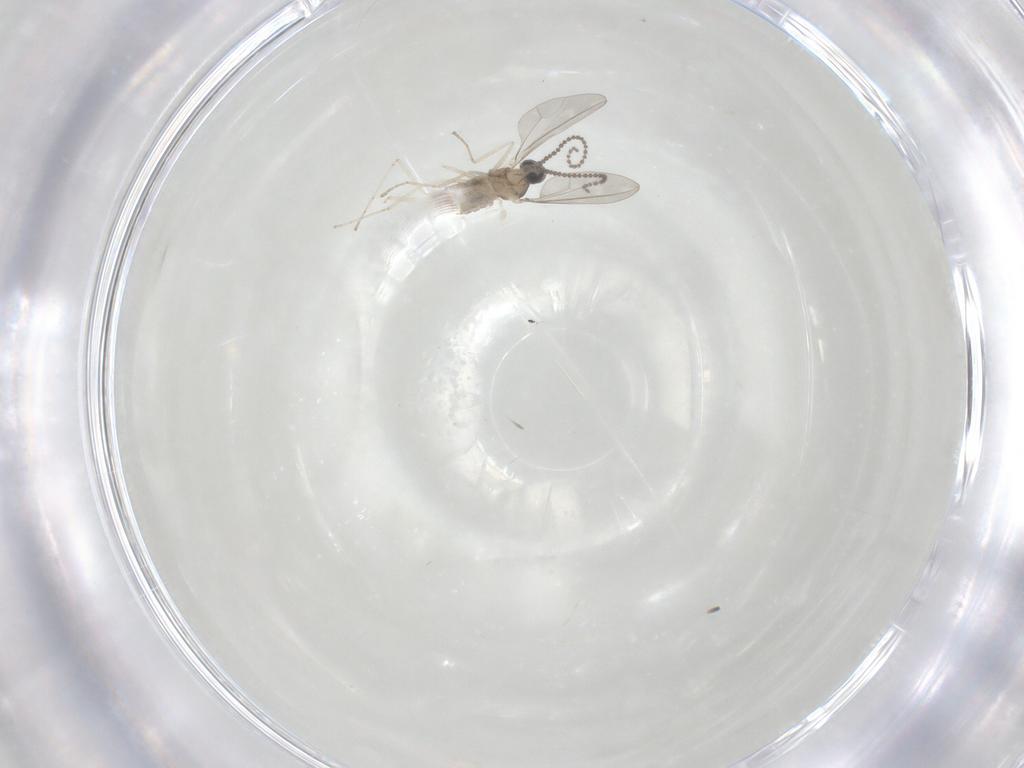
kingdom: Animalia
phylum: Arthropoda
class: Insecta
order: Diptera
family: Cecidomyiidae
